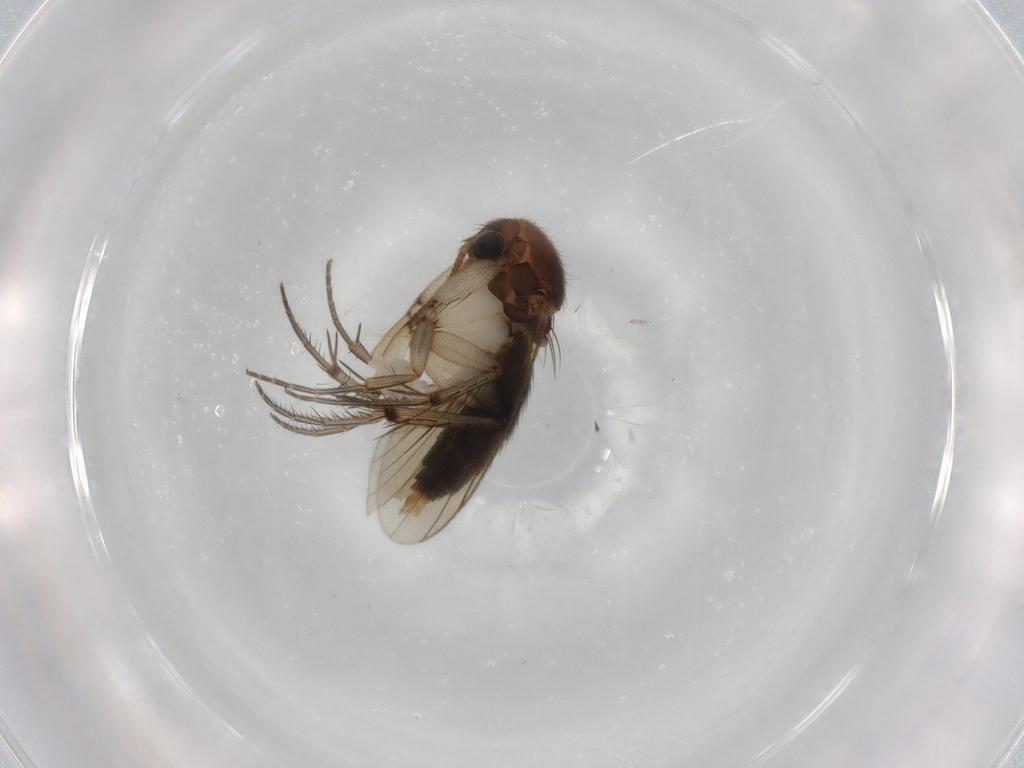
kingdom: Animalia
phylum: Arthropoda
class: Insecta
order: Diptera
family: Mycetophilidae
